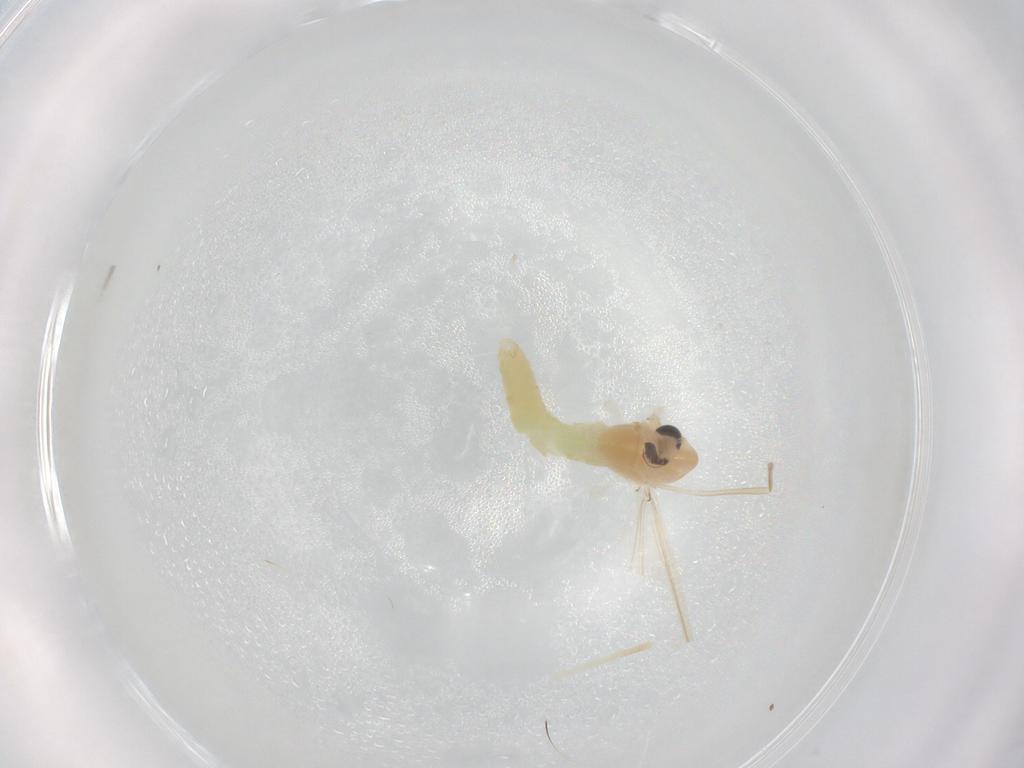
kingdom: Animalia
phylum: Arthropoda
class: Insecta
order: Diptera
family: Chironomidae
